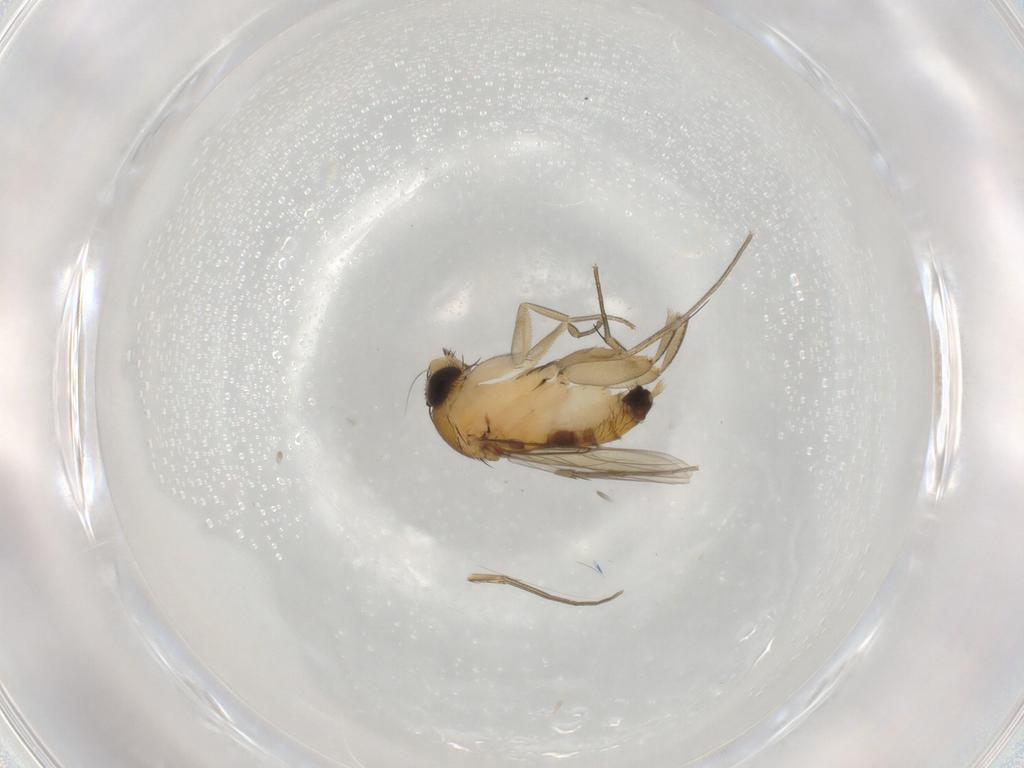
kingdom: Animalia
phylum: Arthropoda
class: Insecta
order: Diptera
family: Phoridae
